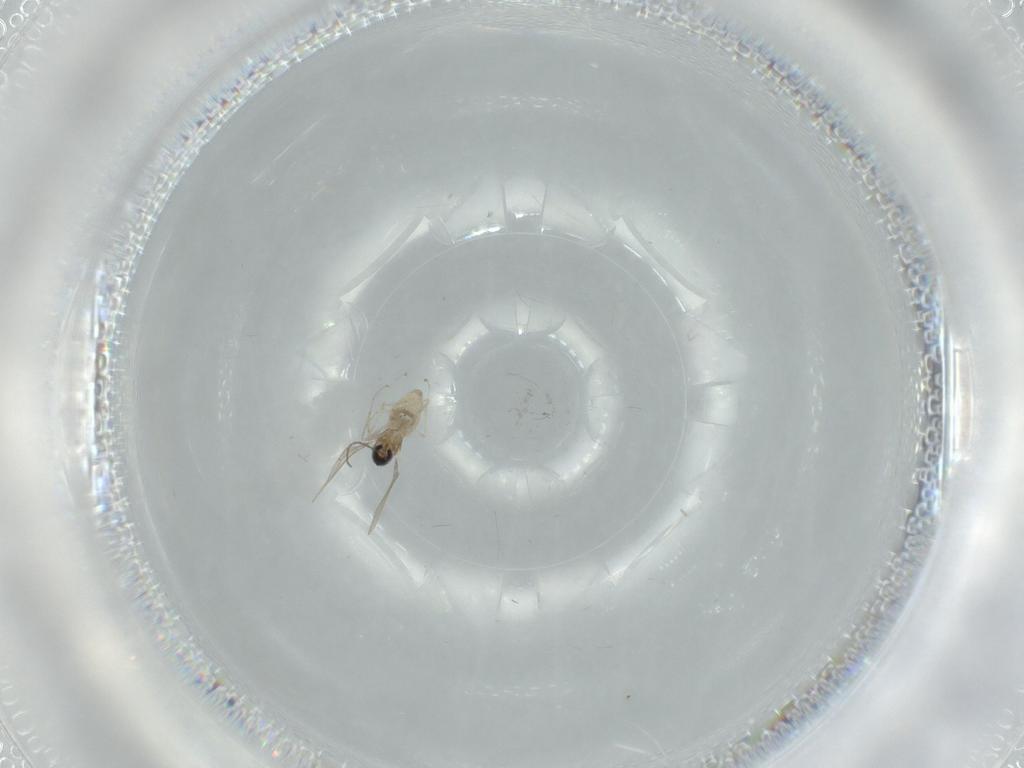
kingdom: Animalia
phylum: Arthropoda
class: Insecta
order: Diptera
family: Cecidomyiidae
